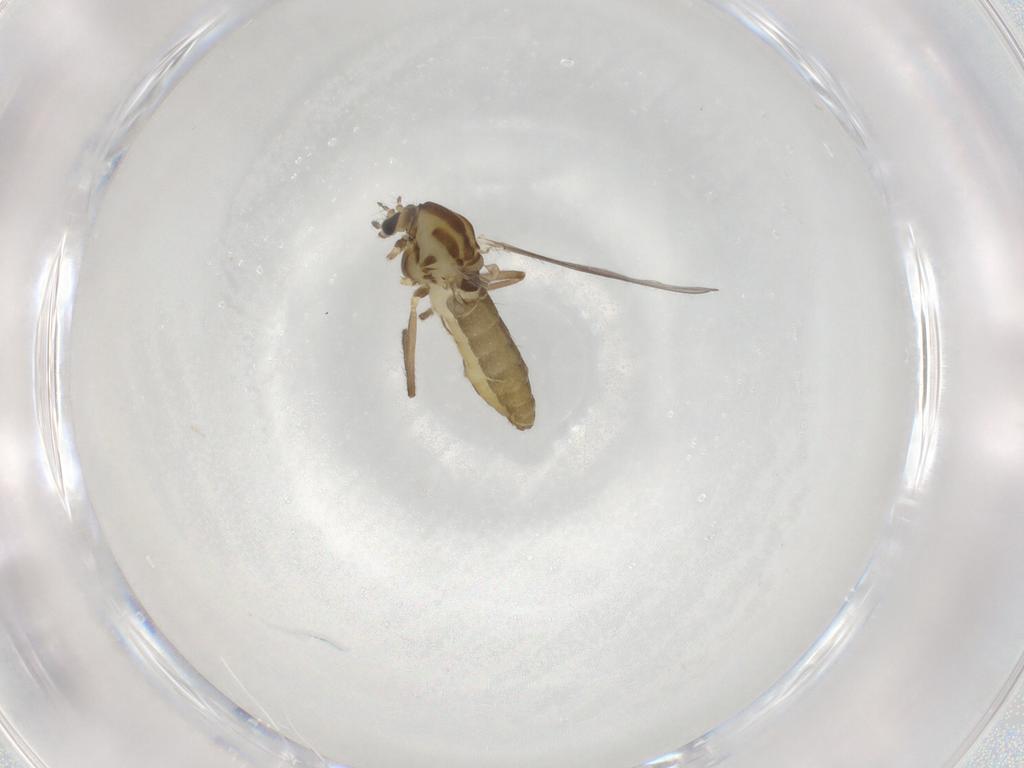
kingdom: Animalia
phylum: Arthropoda
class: Insecta
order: Diptera
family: Chironomidae
